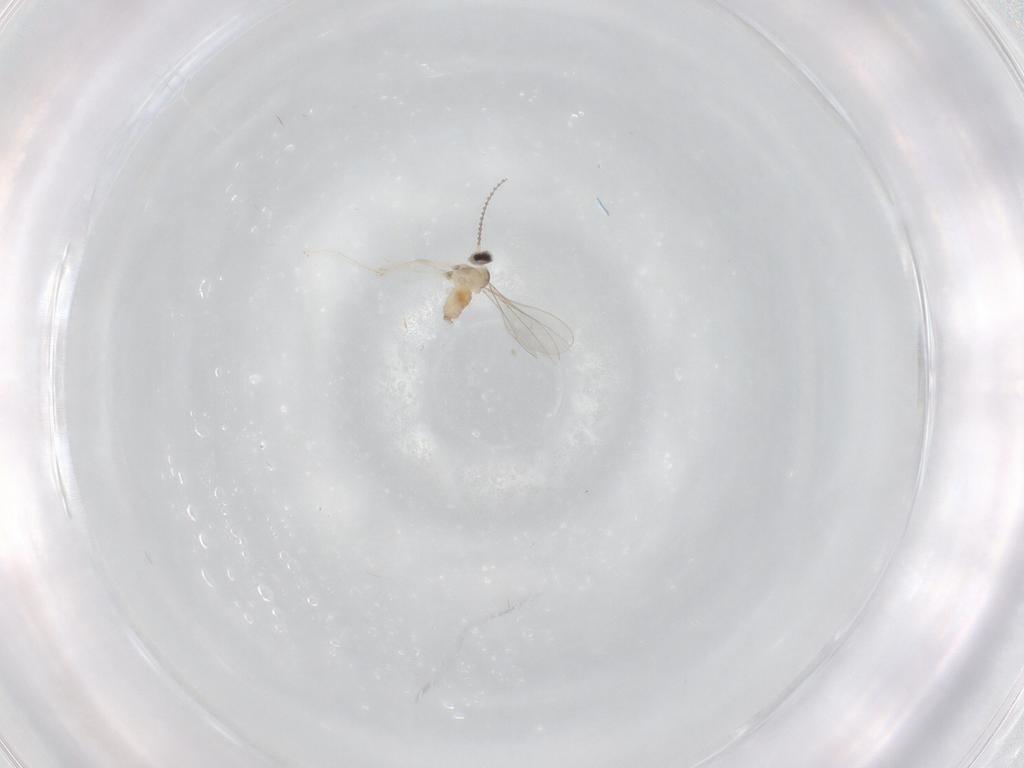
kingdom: Animalia
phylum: Arthropoda
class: Insecta
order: Diptera
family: Cecidomyiidae
